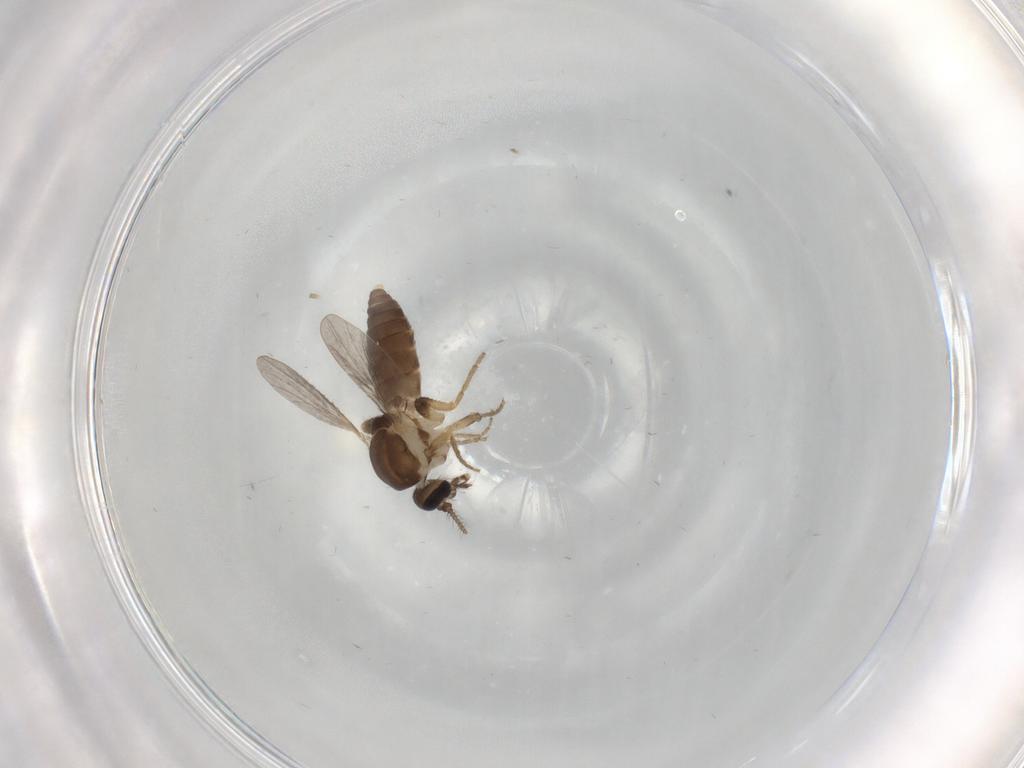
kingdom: Animalia
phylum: Arthropoda
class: Insecta
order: Diptera
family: Ceratopogonidae
